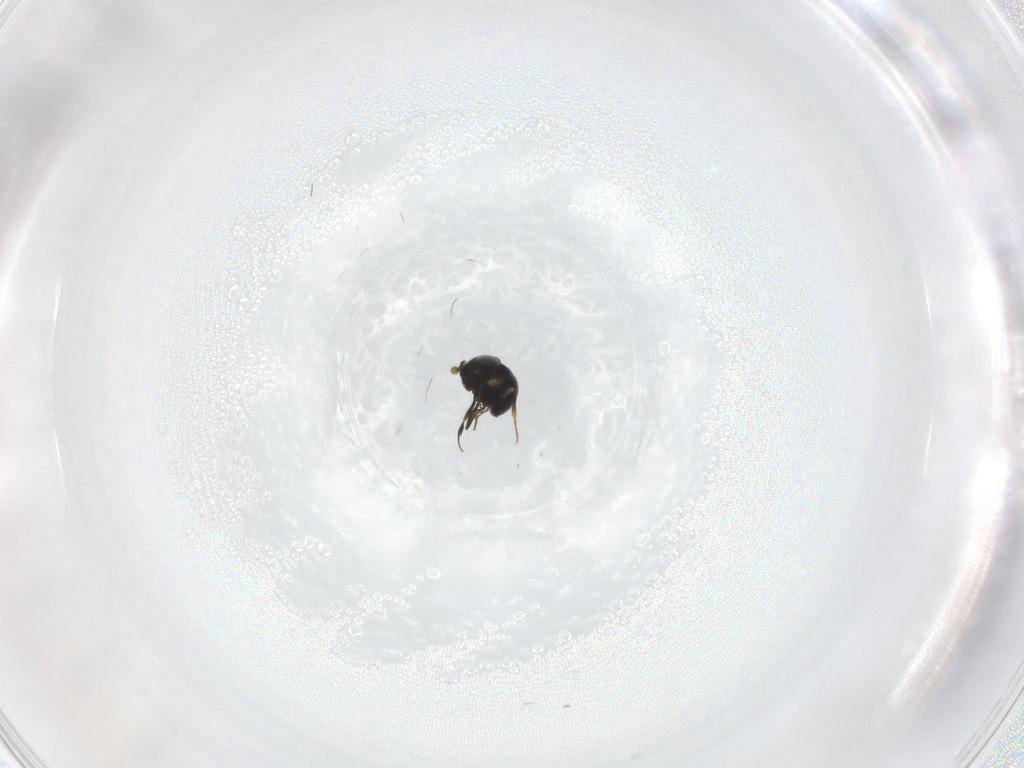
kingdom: Animalia
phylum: Arthropoda
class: Insecta
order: Hymenoptera
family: Scelionidae
